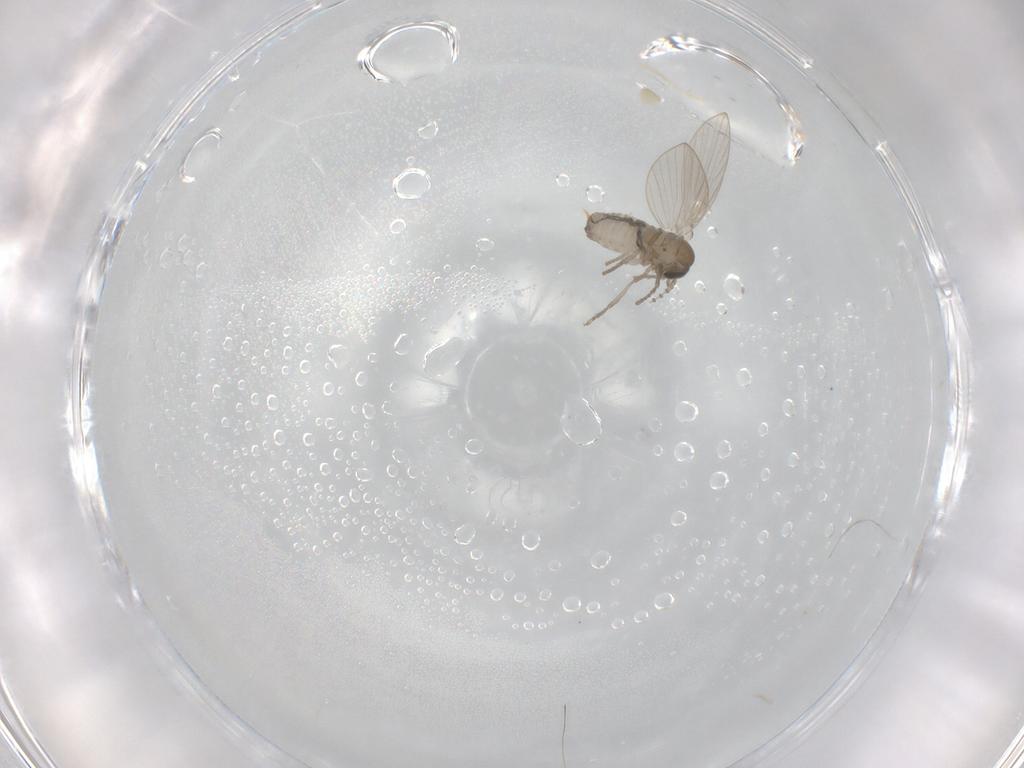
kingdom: Animalia
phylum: Arthropoda
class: Insecta
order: Diptera
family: Psychodidae
